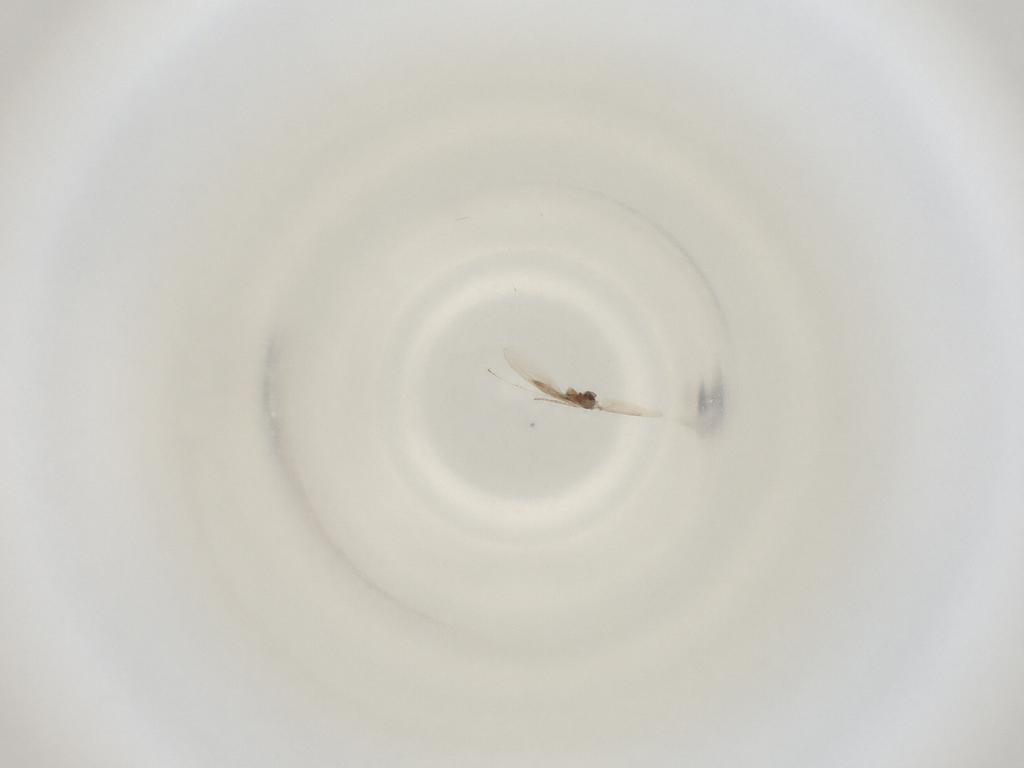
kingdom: Animalia
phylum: Arthropoda
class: Insecta
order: Diptera
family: Cecidomyiidae
